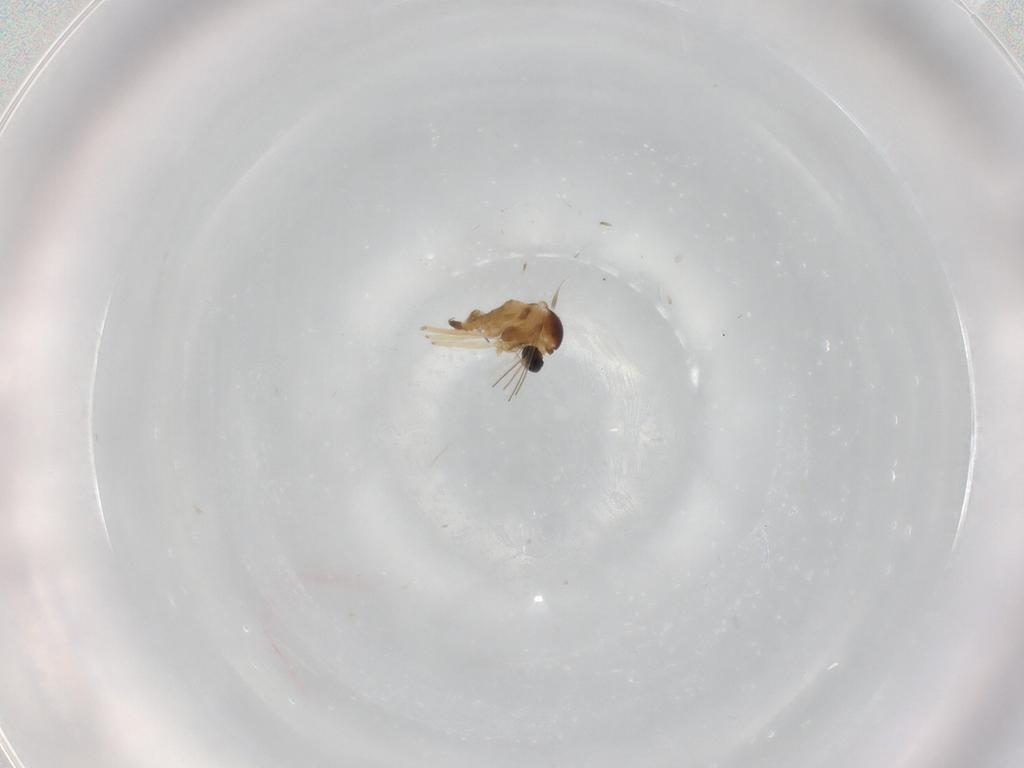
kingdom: Animalia
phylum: Arthropoda
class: Insecta
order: Diptera
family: Cecidomyiidae
